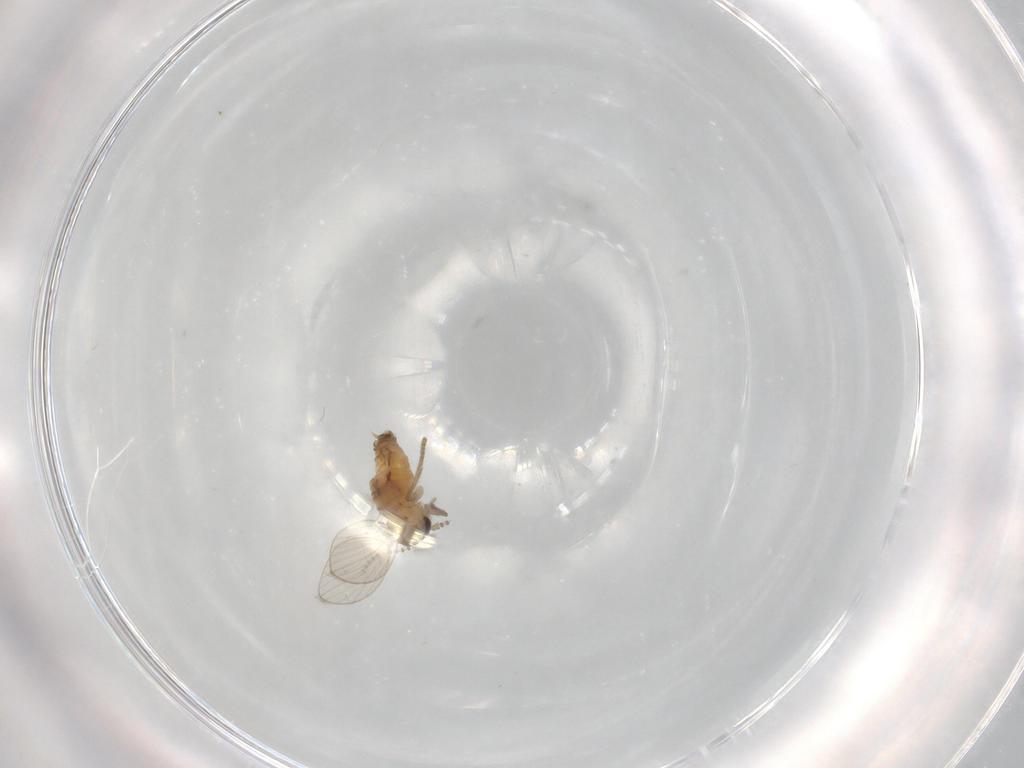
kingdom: Animalia
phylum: Arthropoda
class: Insecta
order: Diptera
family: Psychodidae
